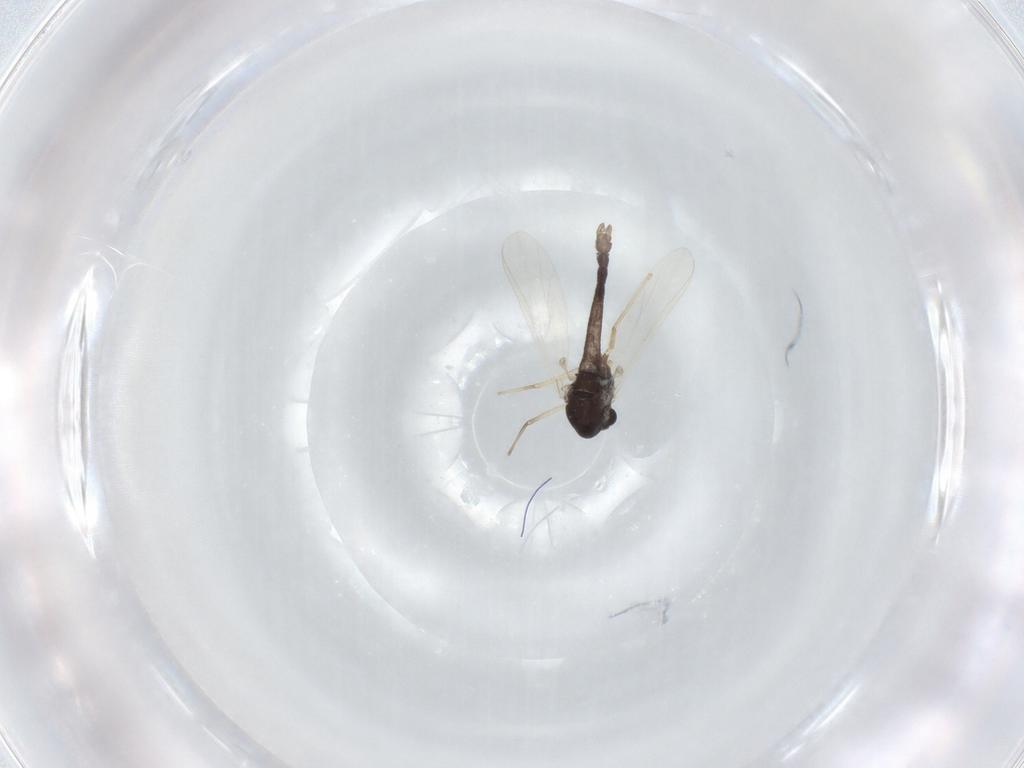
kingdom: Animalia
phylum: Arthropoda
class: Insecta
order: Diptera
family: Chironomidae
